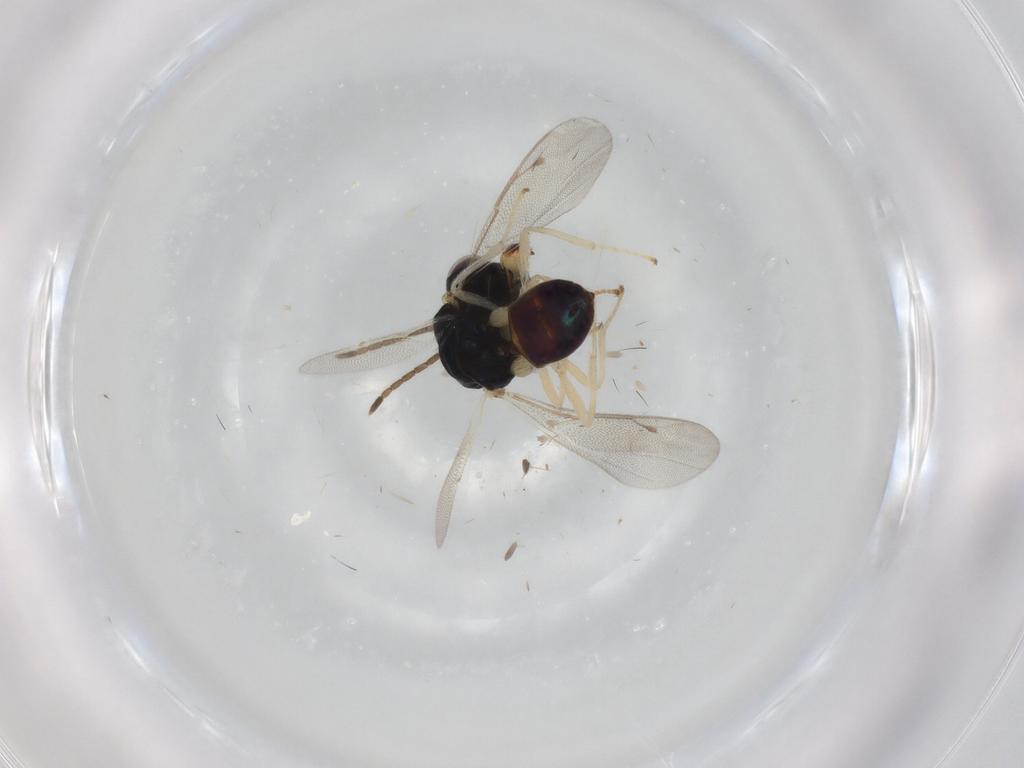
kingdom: Animalia
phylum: Arthropoda
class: Insecta
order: Hymenoptera
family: Pteromalidae
